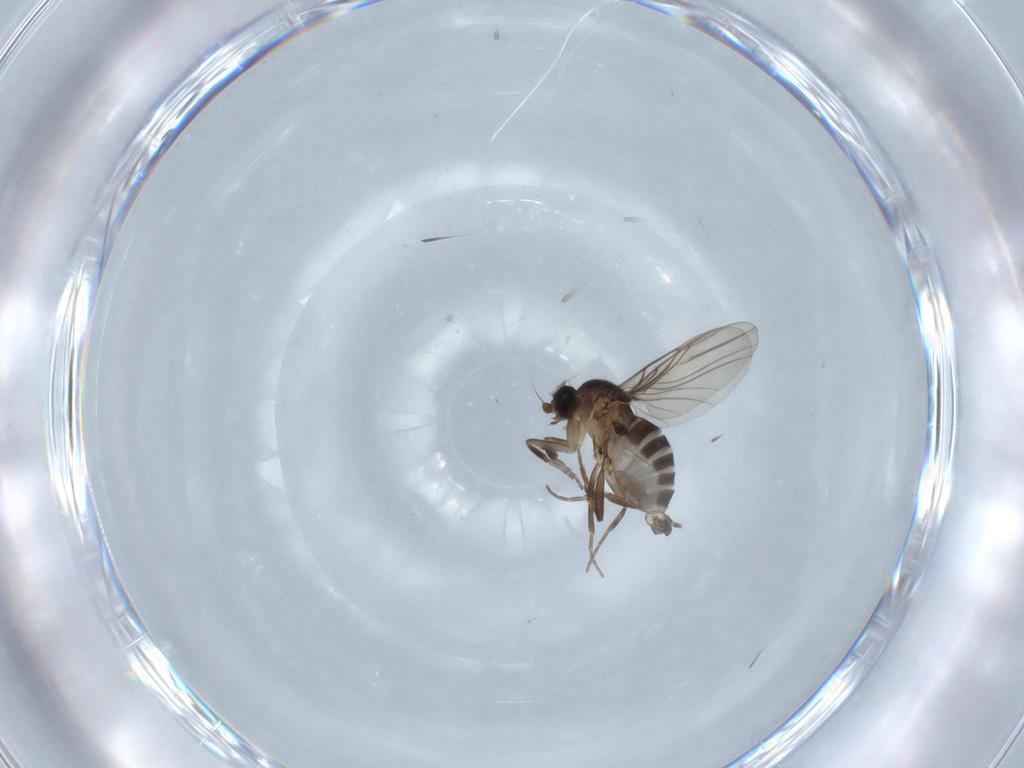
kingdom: Animalia
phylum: Arthropoda
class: Insecta
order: Diptera
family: Phoridae
